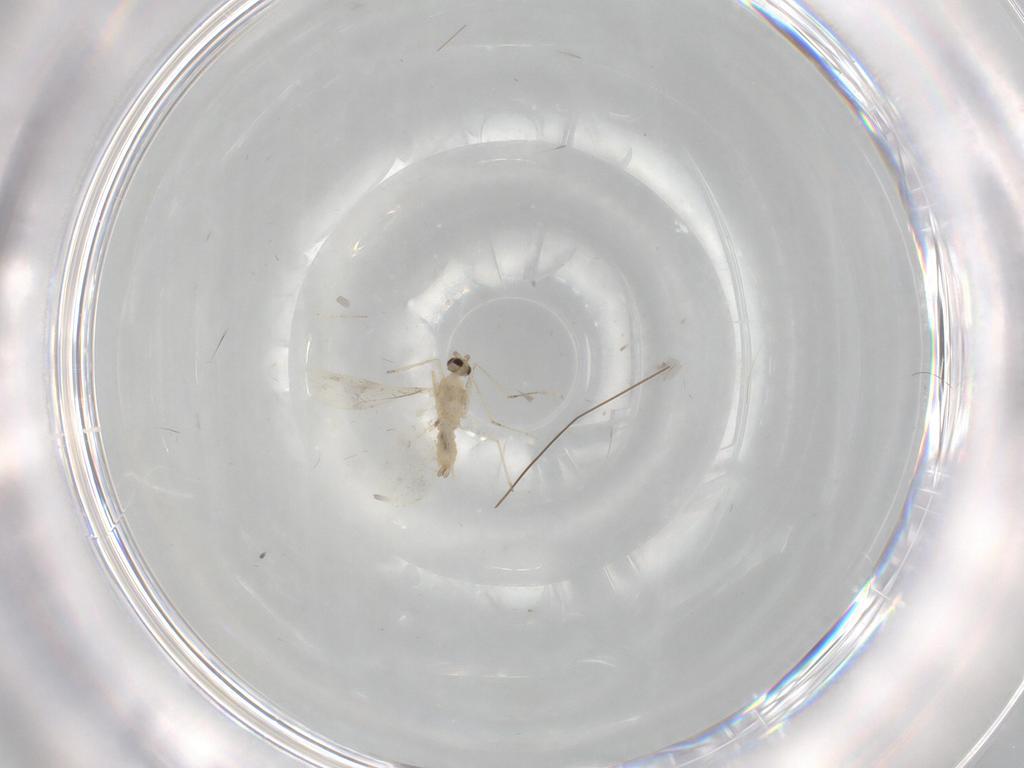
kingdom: Animalia
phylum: Arthropoda
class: Insecta
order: Diptera
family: Cecidomyiidae
